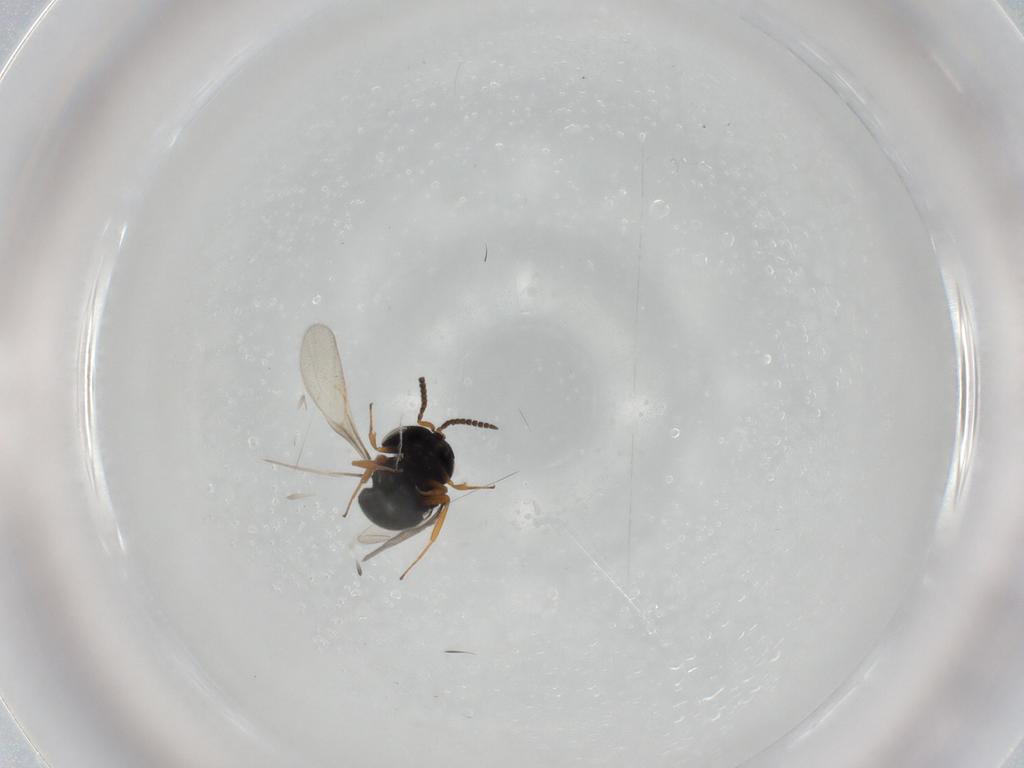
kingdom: Animalia
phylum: Arthropoda
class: Insecta
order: Hymenoptera
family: Scelionidae
